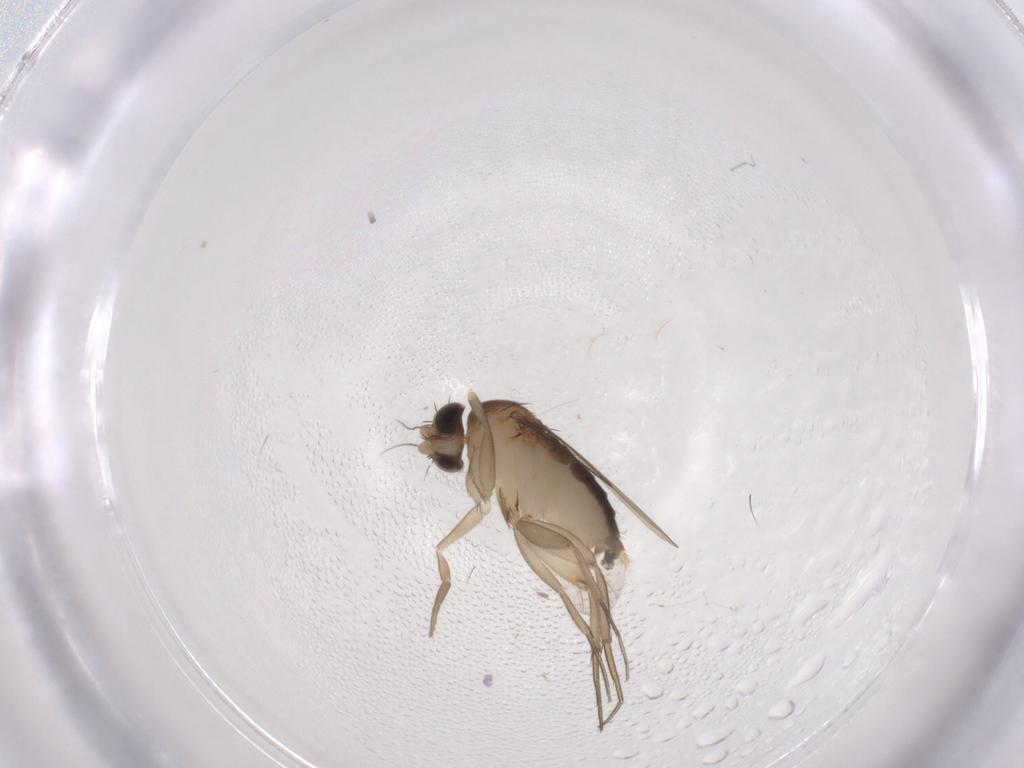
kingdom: Animalia
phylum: Arthropoda
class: Insecta
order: Diptera
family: Phoridae
